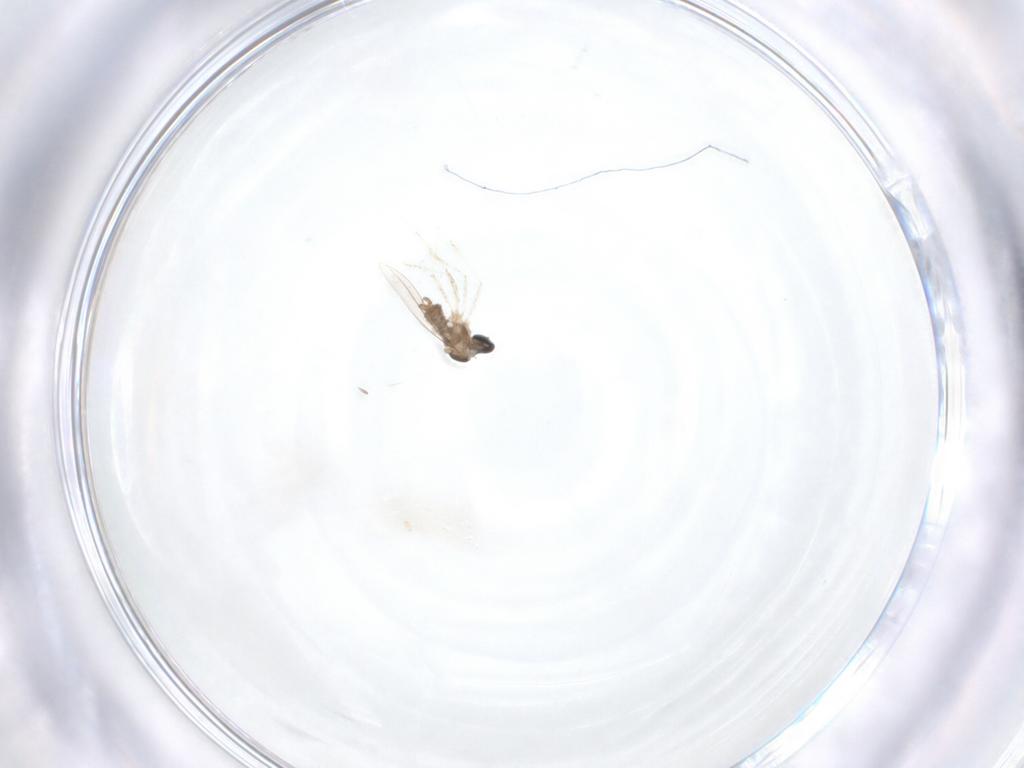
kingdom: Animalia
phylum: Arthropoda
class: Insecta
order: Diptera
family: Cecidomyiidae
